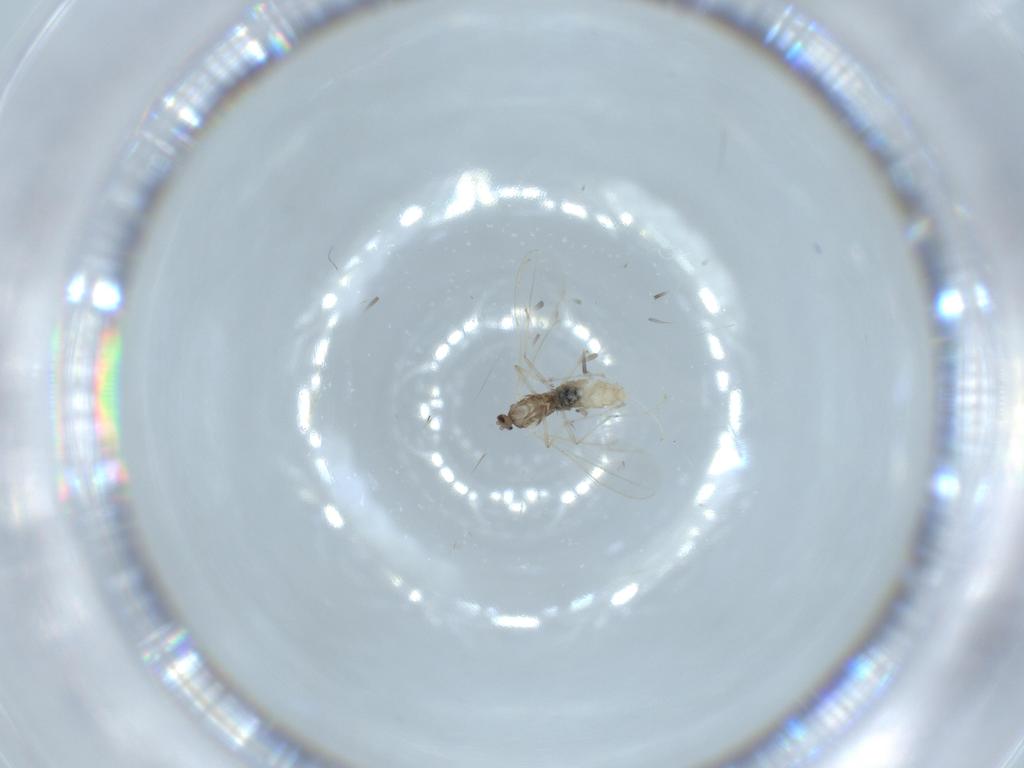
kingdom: Animalia
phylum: Arthropoda
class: Insecta
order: Diptera
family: Cecidomyiidae
